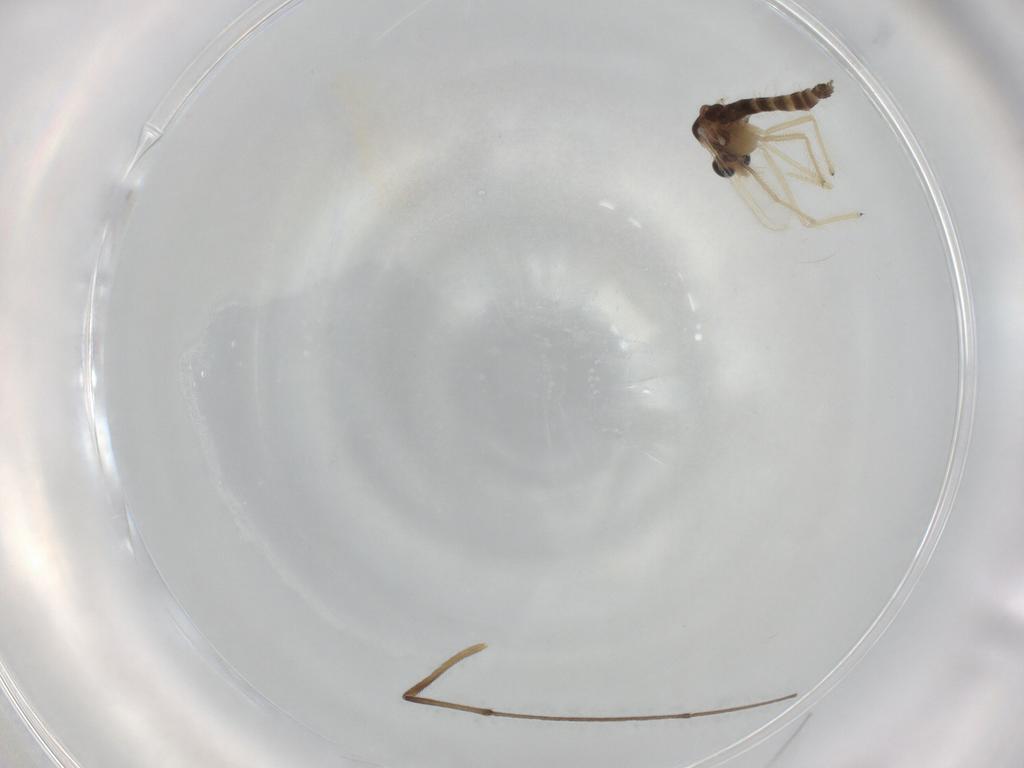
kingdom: Animalia
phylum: Arthropoda
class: Insecta
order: Diptera
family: Chironomidae
